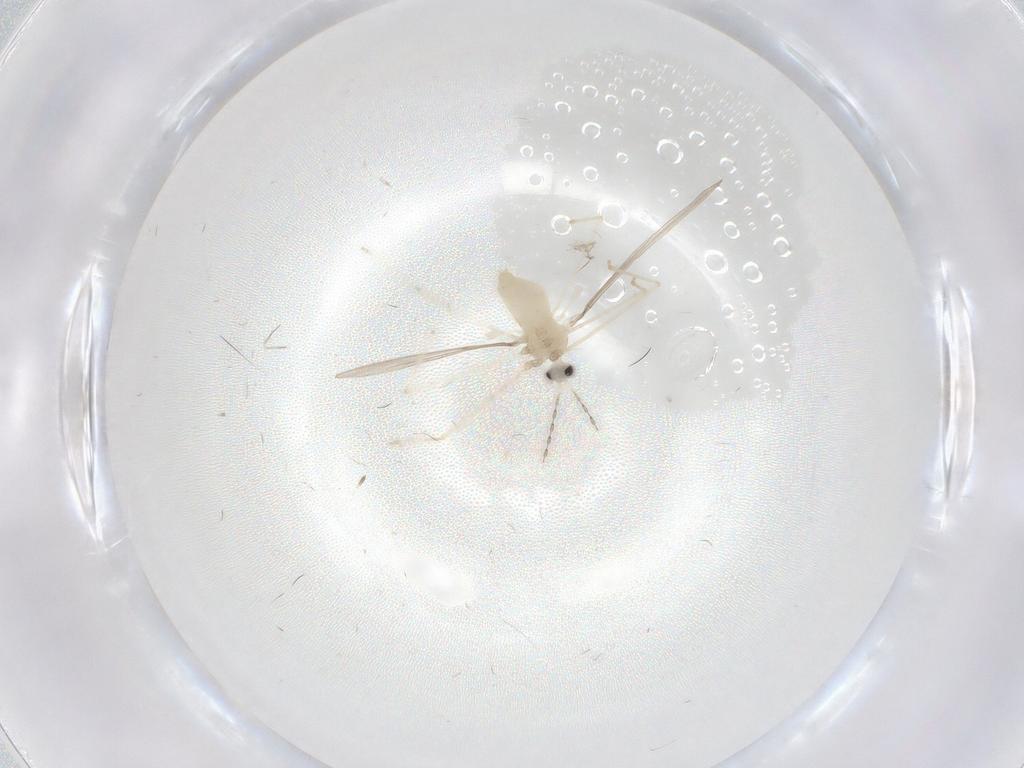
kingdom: Animalia
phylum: Arthropoda
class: Insecta
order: Diptera
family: Cecidomyiidae
